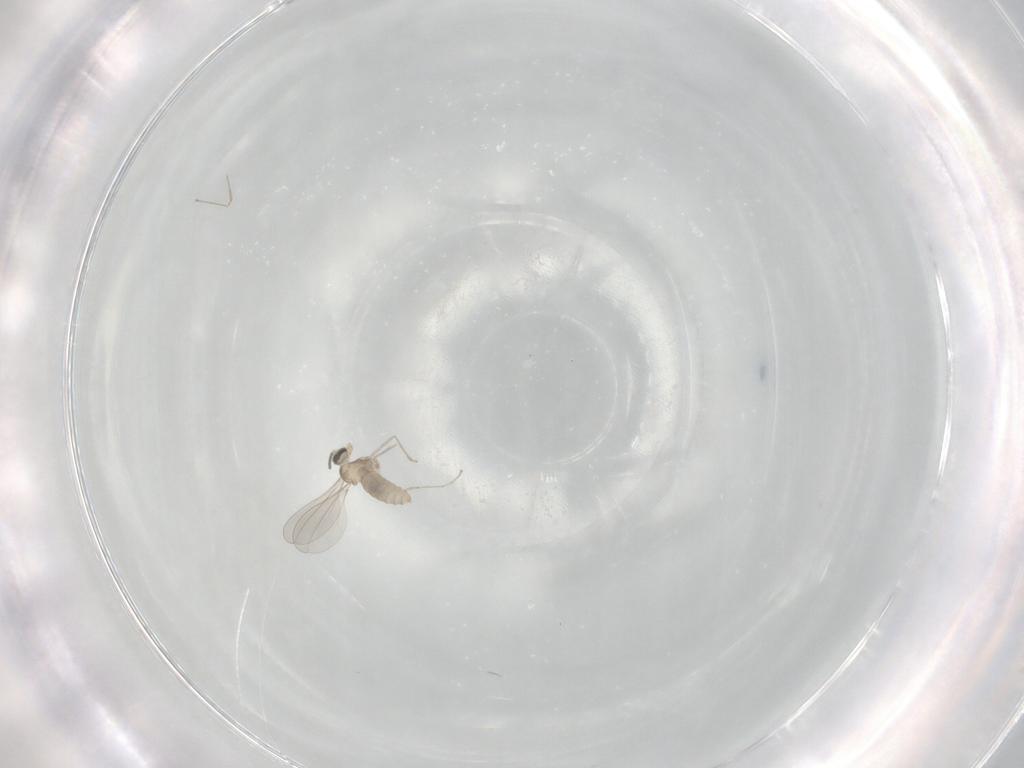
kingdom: Animalia
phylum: Arthropoda
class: Insecta
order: Diptera
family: Cecidomyiidae
